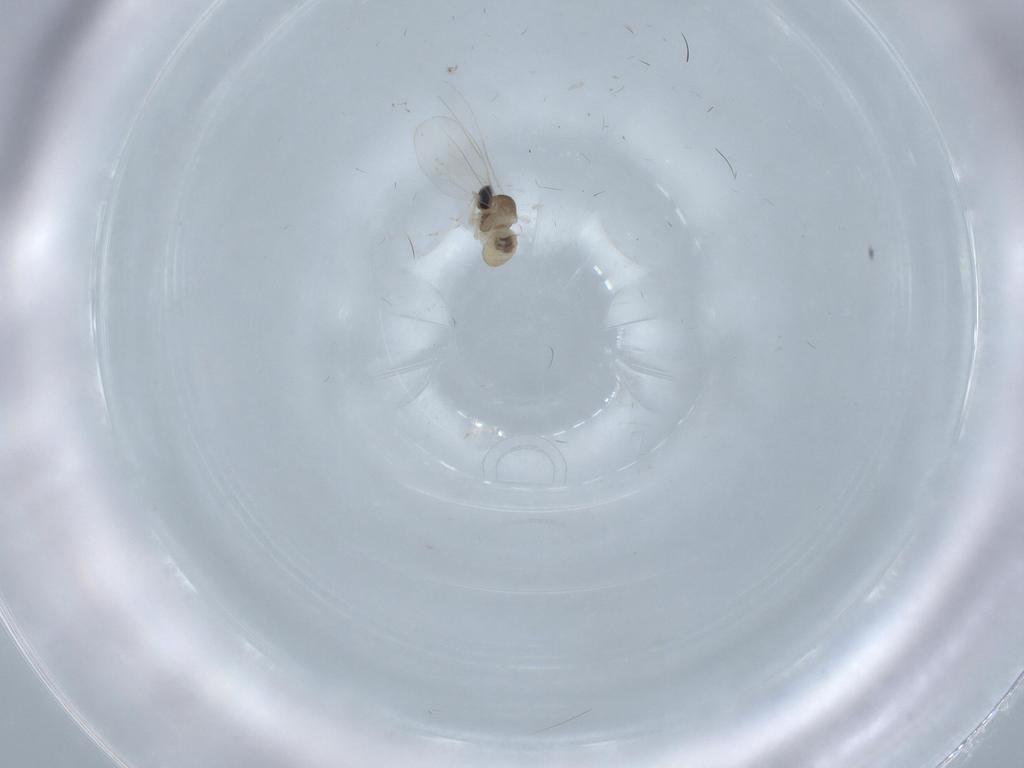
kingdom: Animalia
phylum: Arthropoda
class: Insecta
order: Diptera
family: Cecidomyiidae
